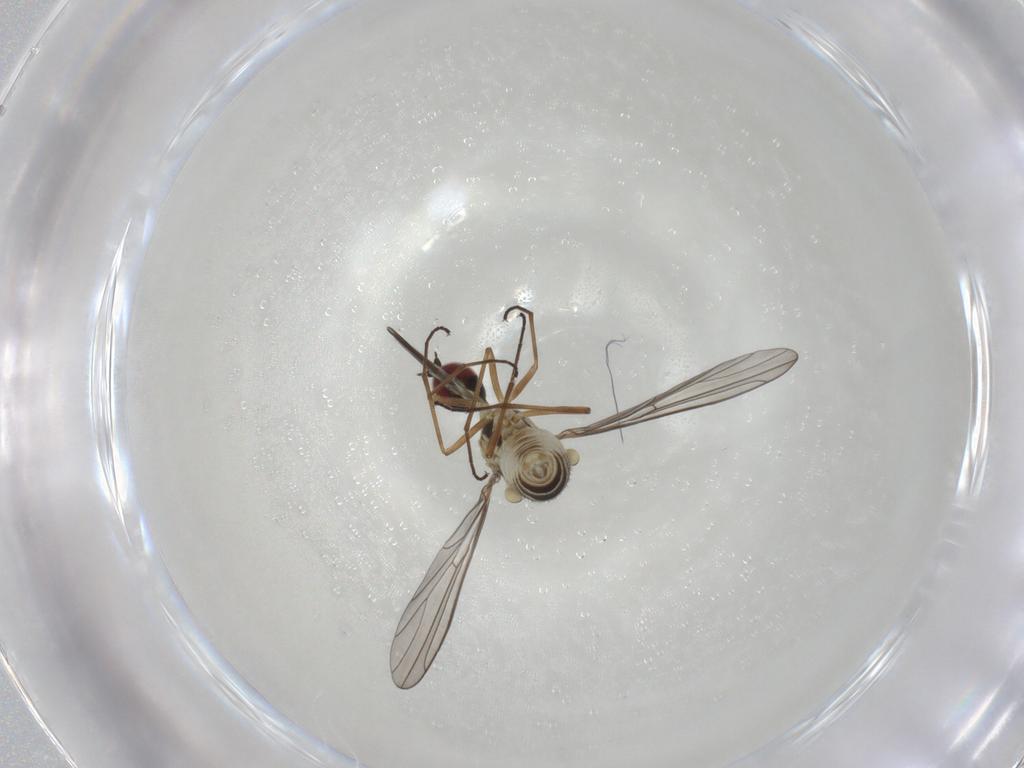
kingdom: Animalia
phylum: Arthropoda
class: Insecta
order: Diptera
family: Bombyliidae
